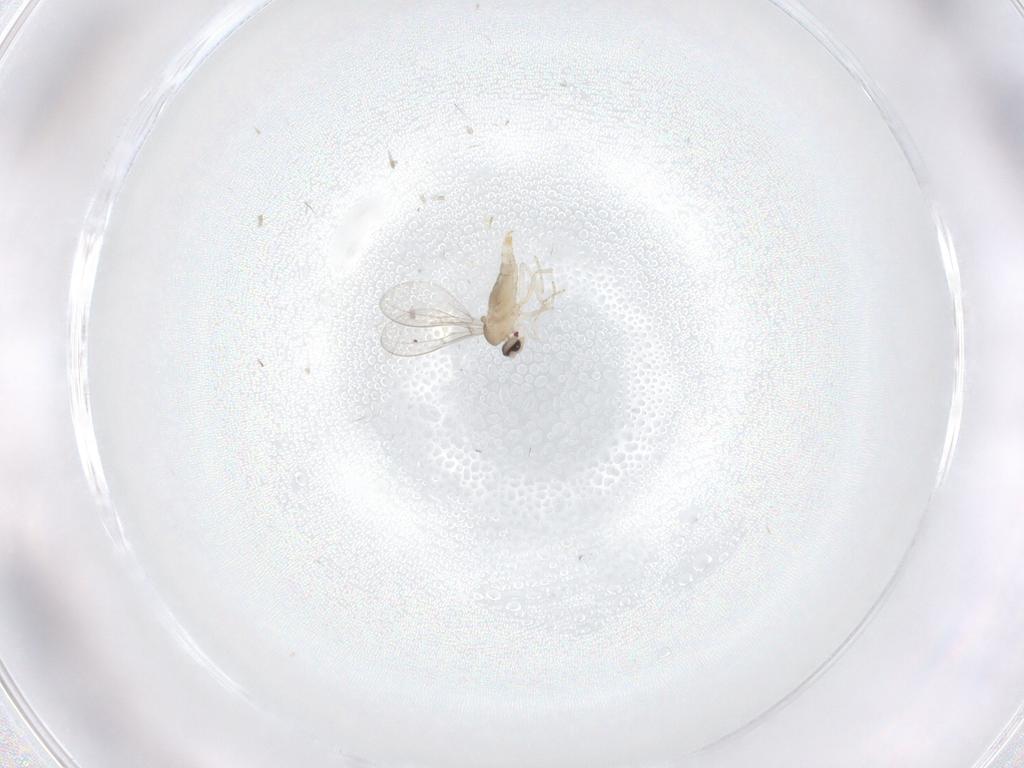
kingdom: Animalia
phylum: Arthropoda
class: Insecta
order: Diptera
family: Cecidomyiidae
